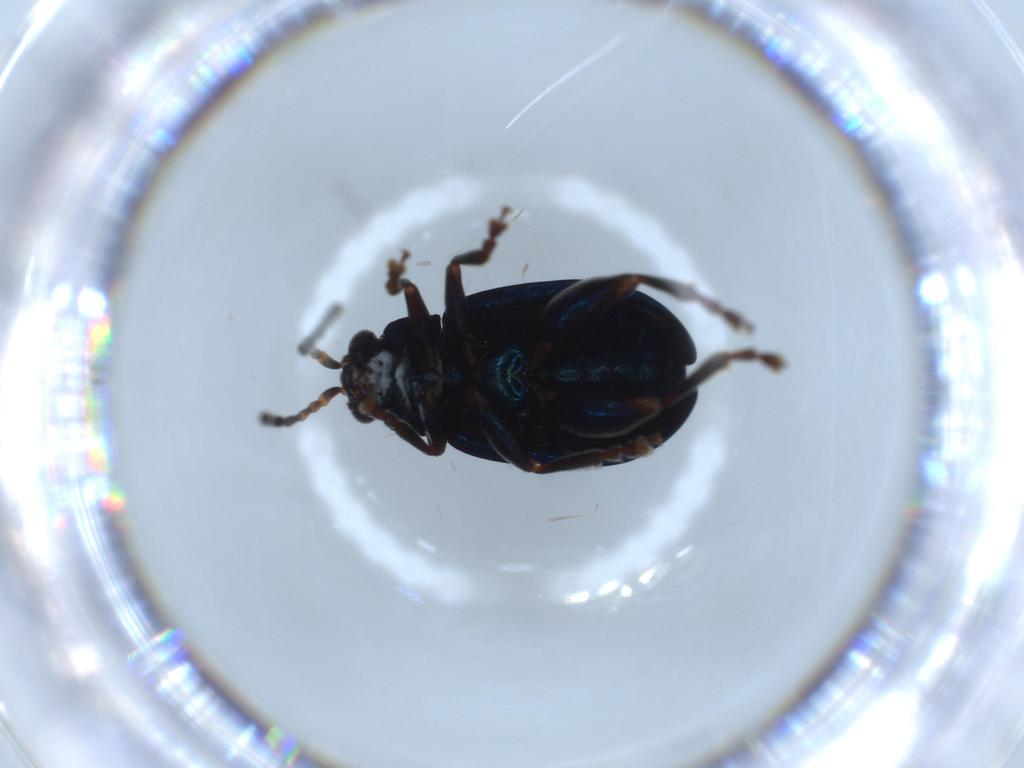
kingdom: Animalia
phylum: Arthropoda
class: Insecta
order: Coleoptera
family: Chrysomelidae
